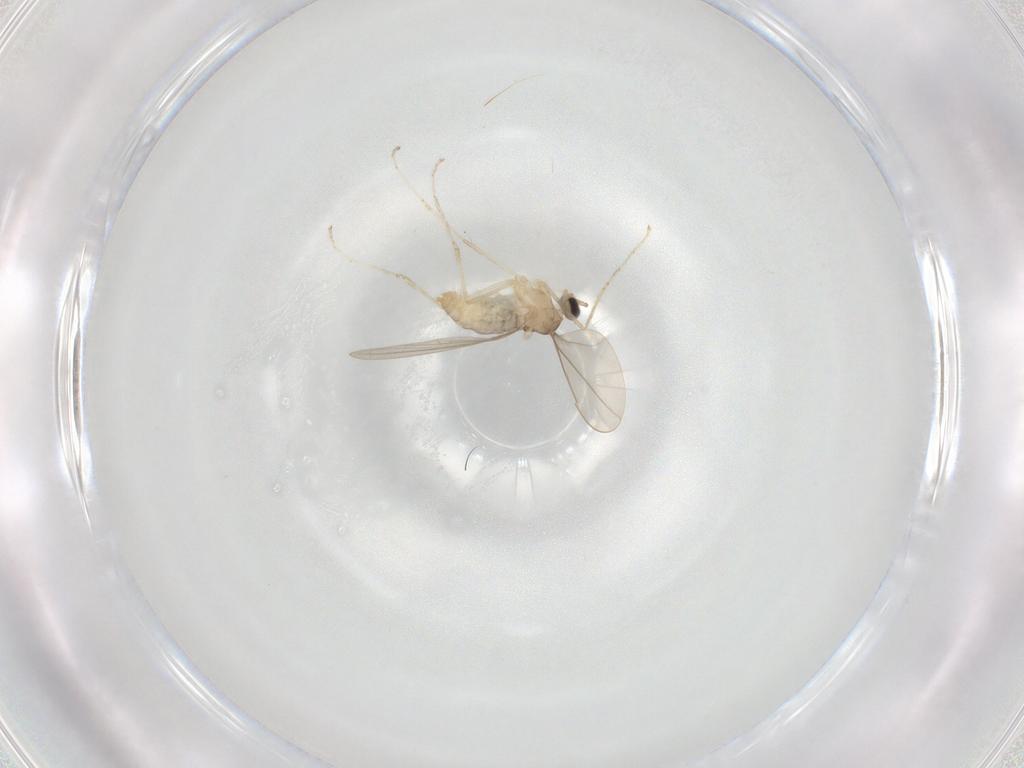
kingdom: Animalia
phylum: Arthropoda
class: Insecta
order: Diptera
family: Cecidomyiidae
